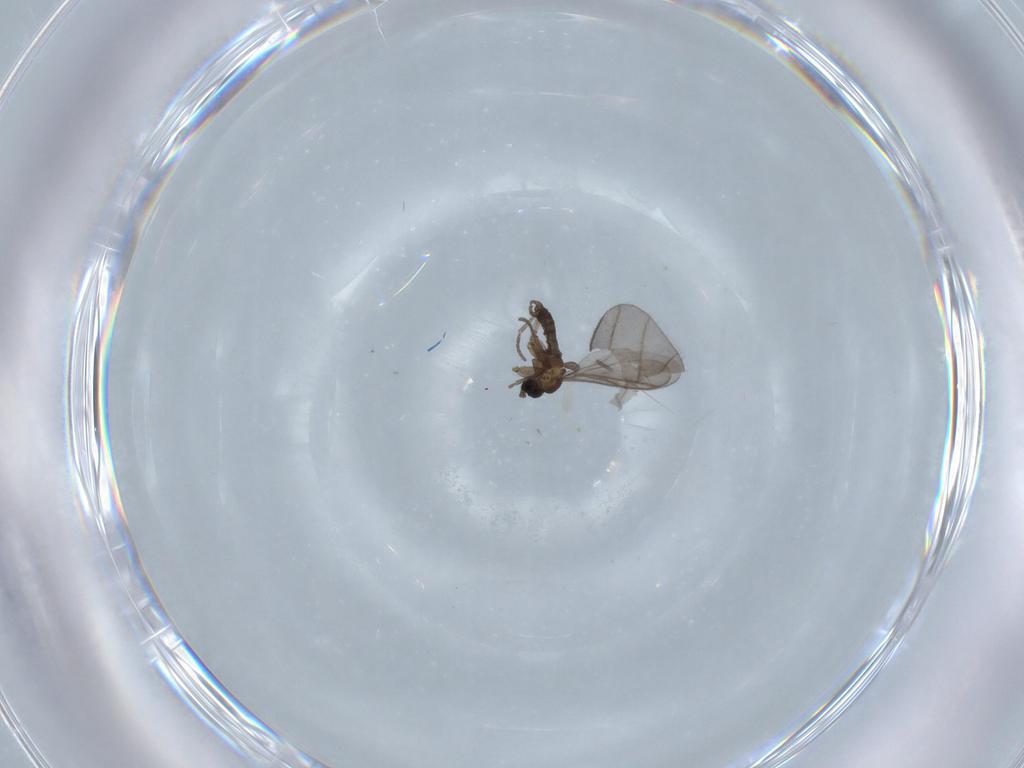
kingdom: Animalia
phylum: Arthropoda
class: Insecta
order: Diptera
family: Sciaridae
